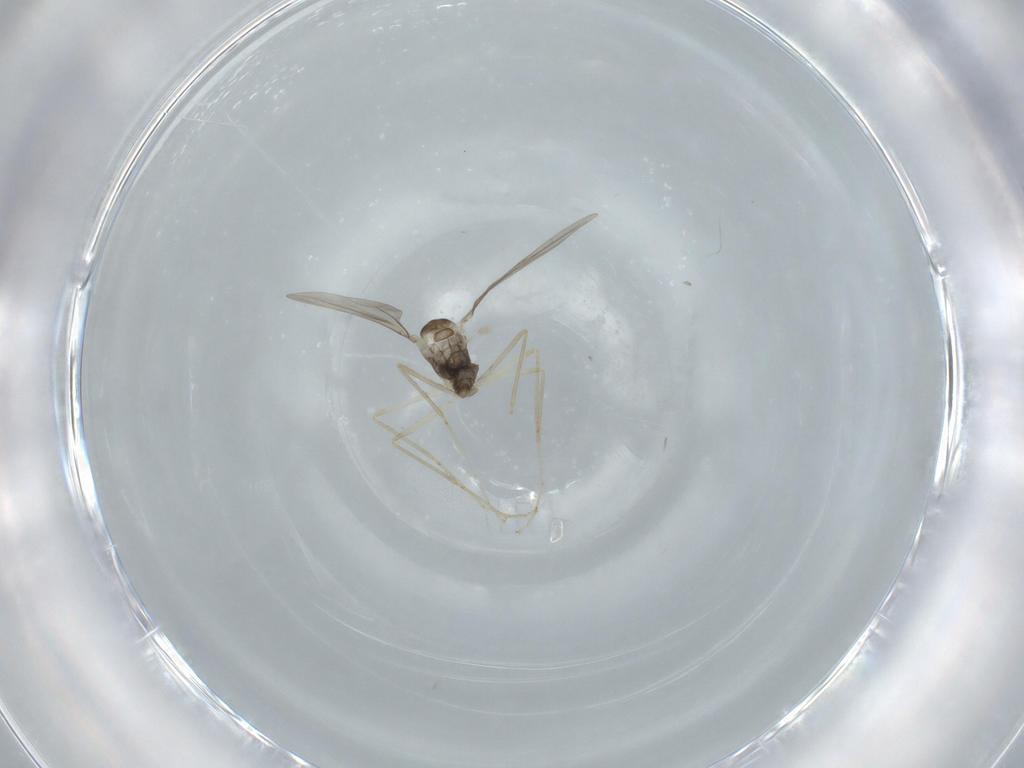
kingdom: Animalia
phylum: Arthropoda
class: Insecta
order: Diptera
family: Cecidomyiidae
